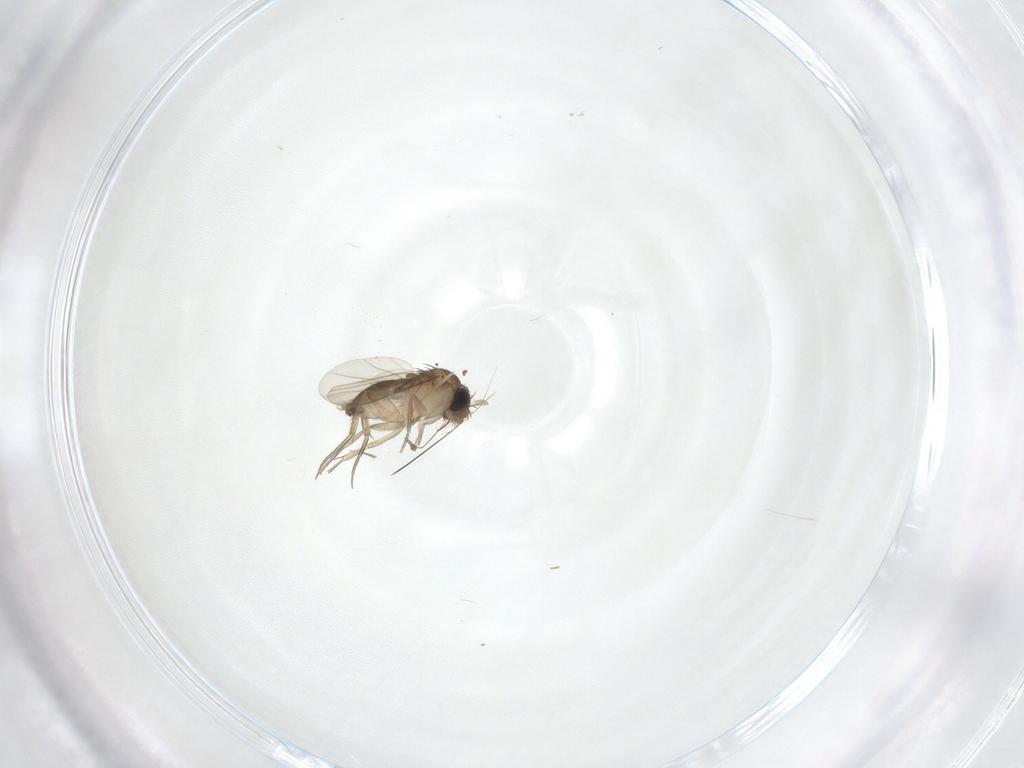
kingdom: Animalia
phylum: Arthropoda
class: Insecta
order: Diptera
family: Phoridae
